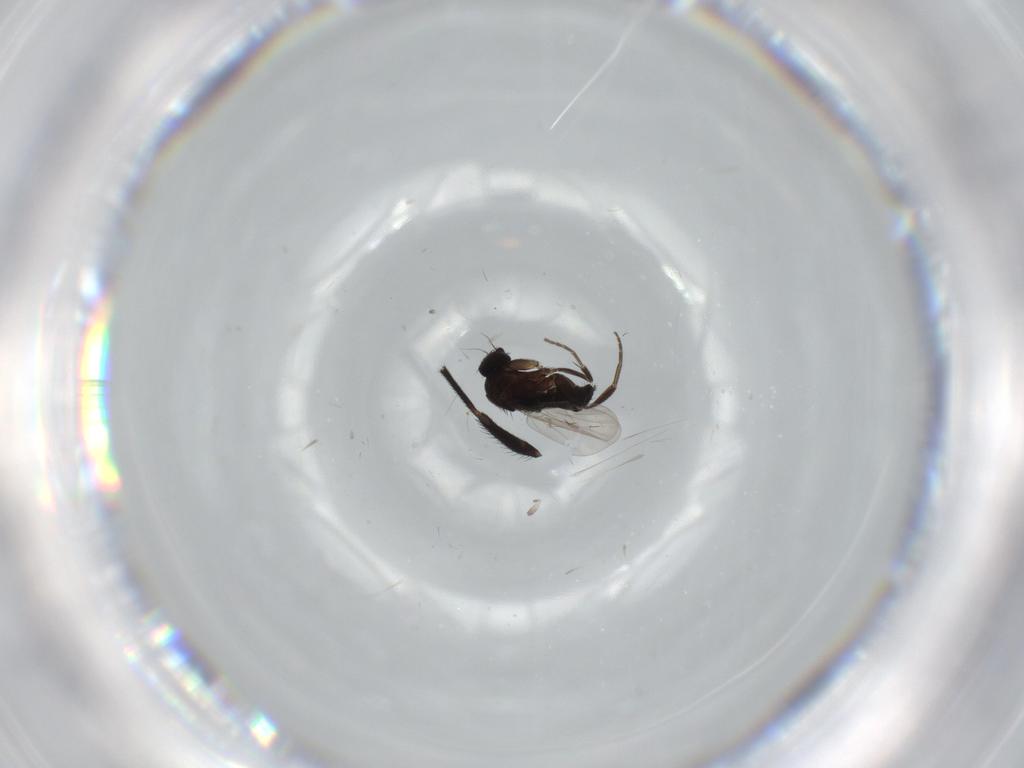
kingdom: Animalia
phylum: Arthropoda
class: Insecta
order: Diptera
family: Phoridae
